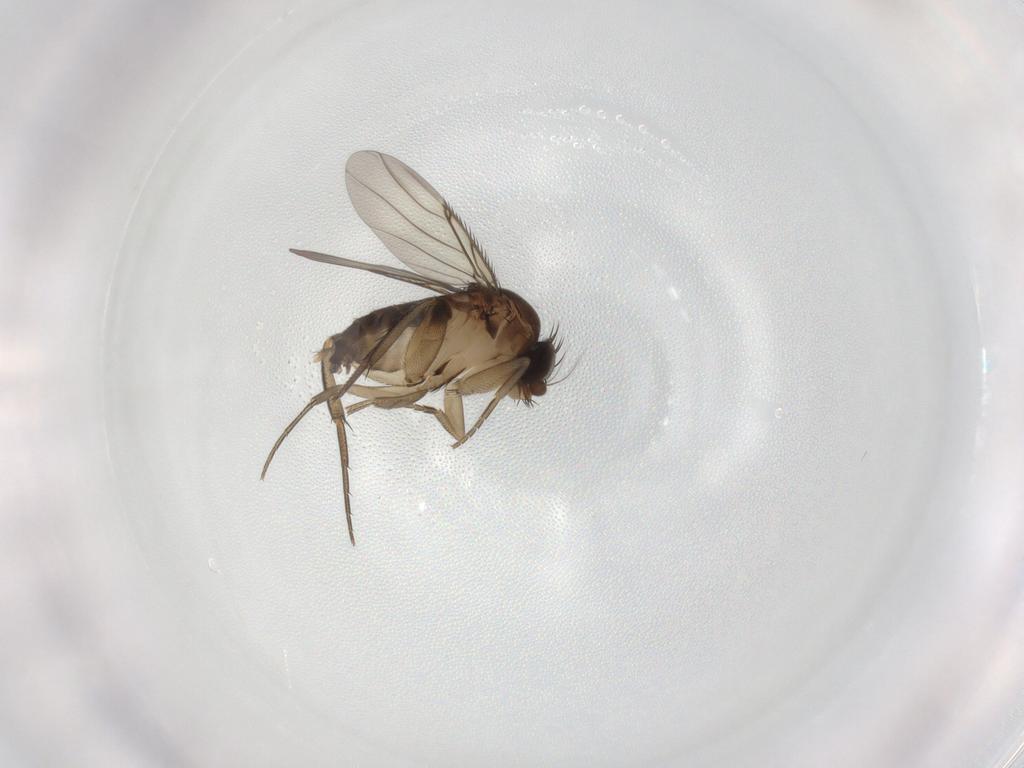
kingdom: Animalia
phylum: Arthropoda
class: Insecta
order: Diptera
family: Phoridae
